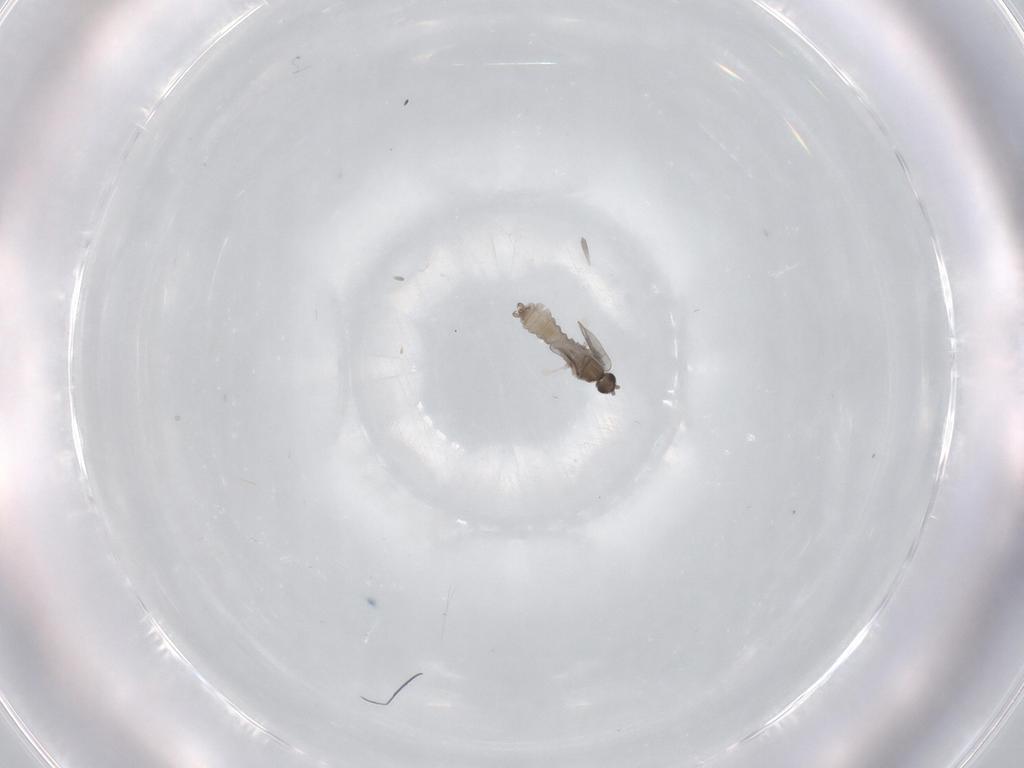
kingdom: Animalia
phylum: Arthropoda
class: Insecta
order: Diptera
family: Cecidomyiidae
